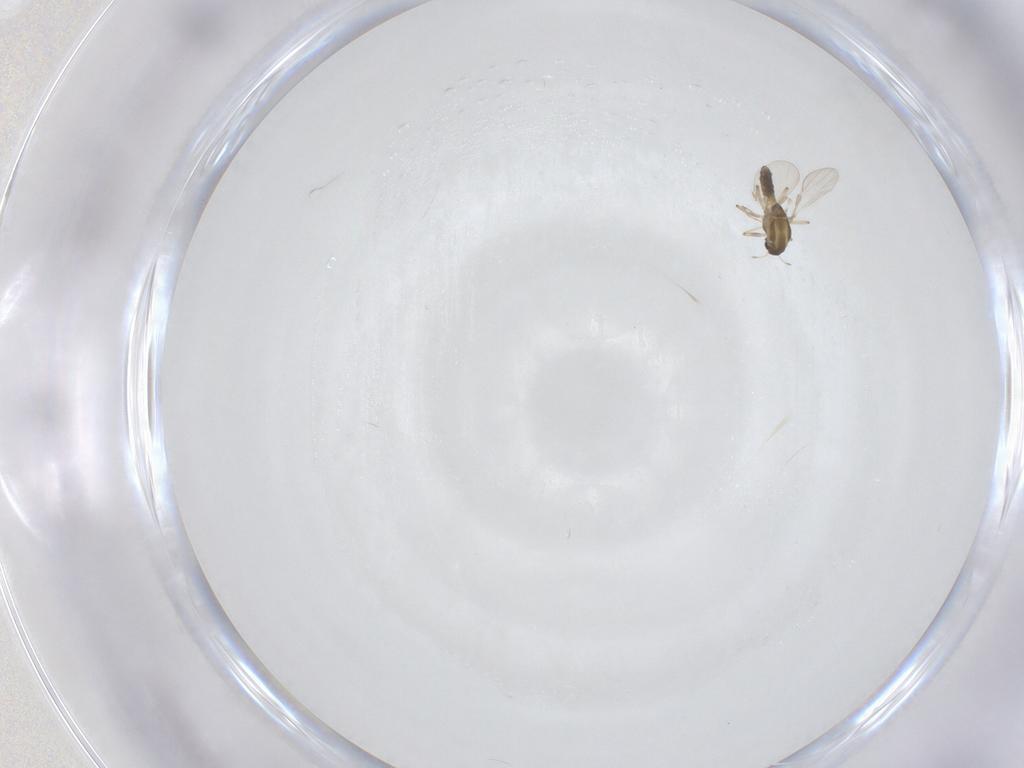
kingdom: Animalia
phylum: Arthropoda
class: Insecta
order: Diptera
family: Chironomidae
